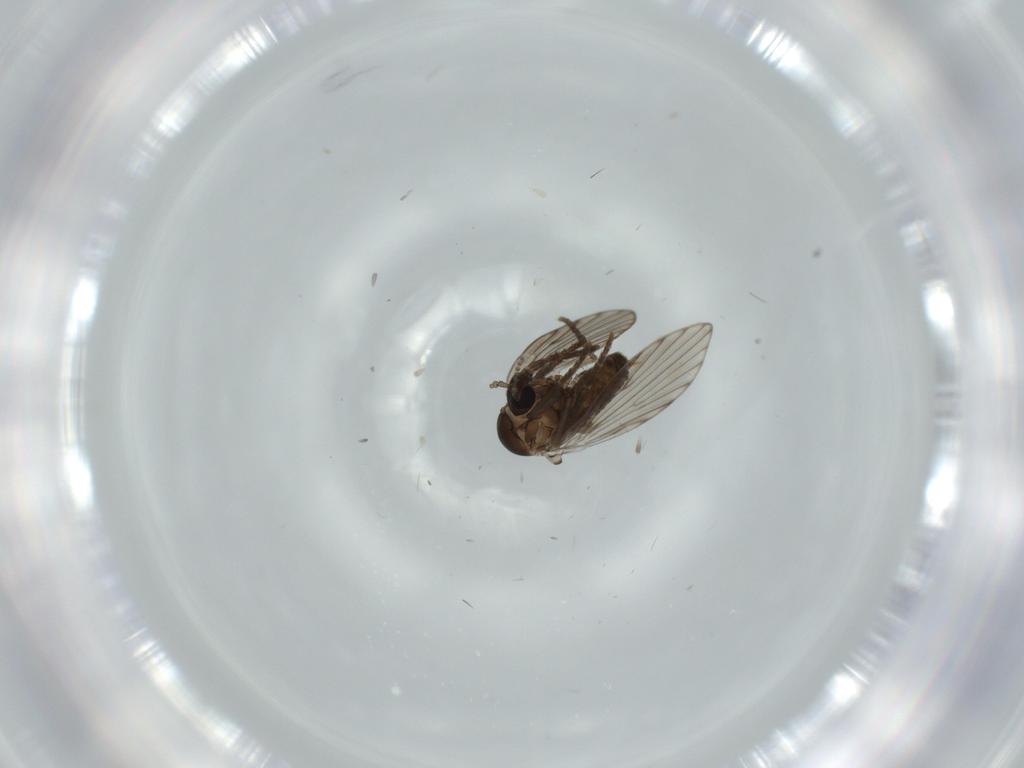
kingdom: Animalia
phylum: Arthropoda
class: Insecta
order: Diptera
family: Psychodidae
